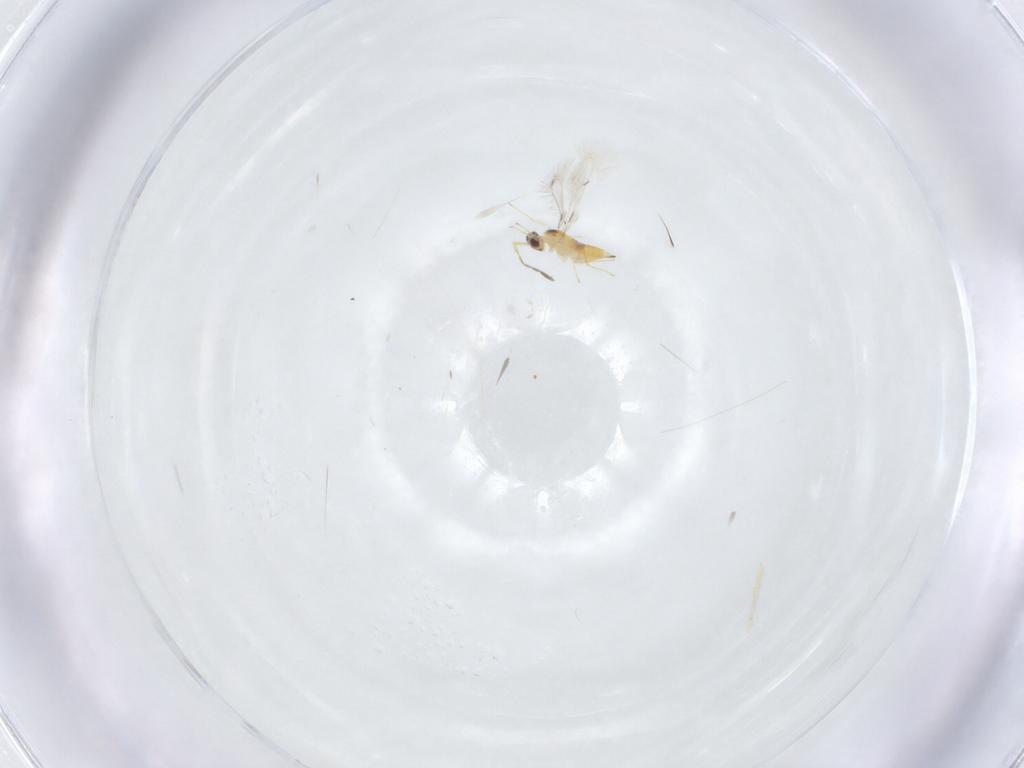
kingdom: Animalia
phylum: Arthropoda
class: Insecta
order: Hymenoptera
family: Mymaridae
